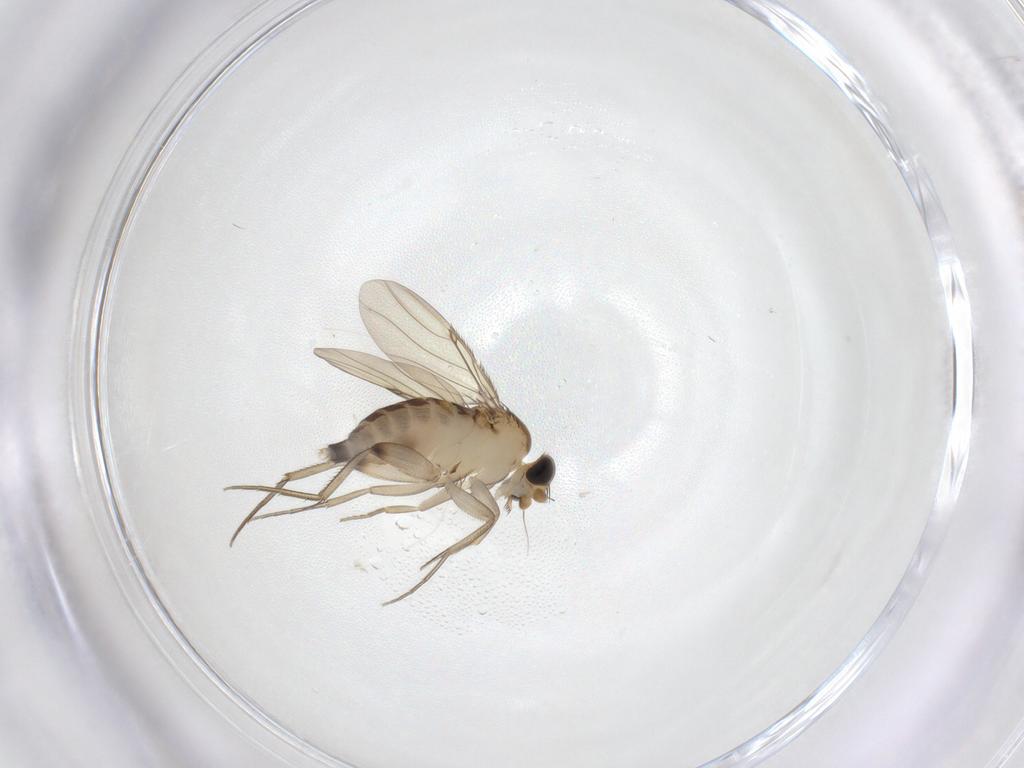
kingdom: Animalia
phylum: Arthropoda
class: Insecta
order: Diptera
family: Phoridae
